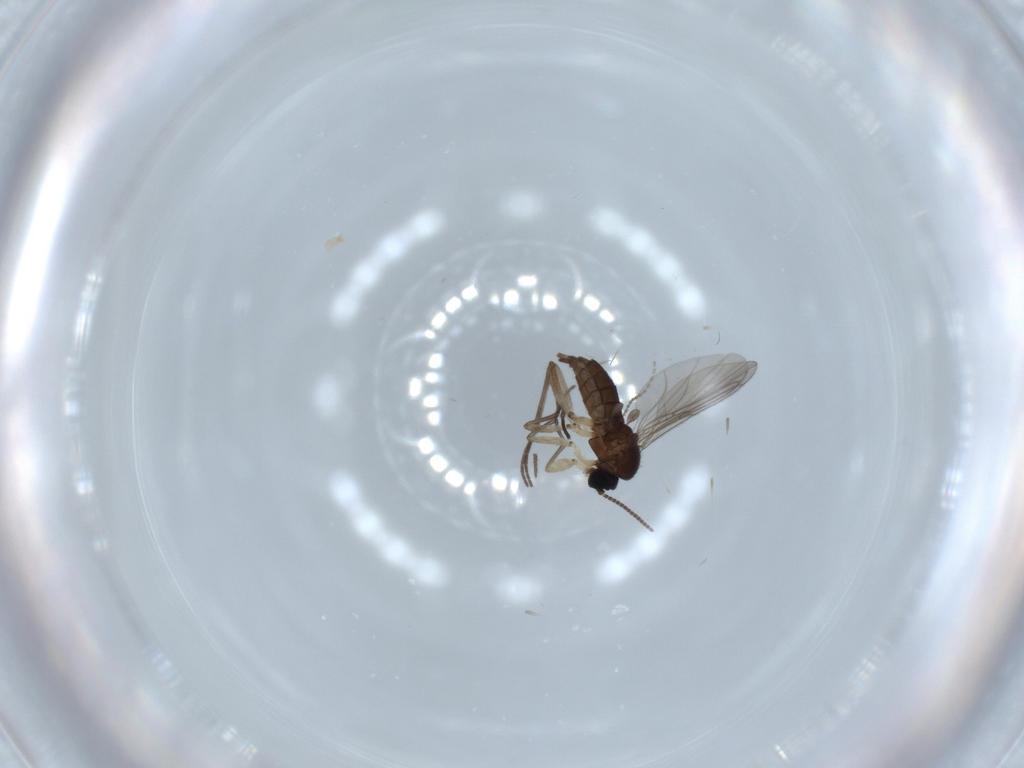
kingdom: Animalia
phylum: Arthropoda
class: Insecta
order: Diptera
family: Sciaridae
